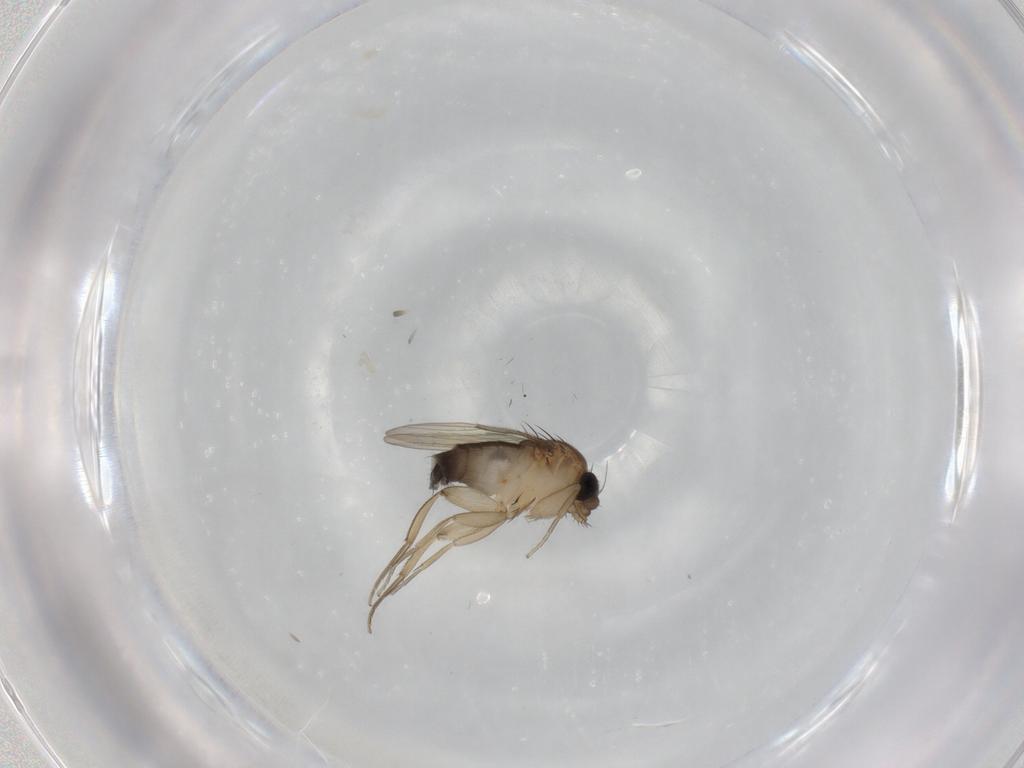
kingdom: Animalia
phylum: Arthropoda
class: Insecta
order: Diptera
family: Phoridae
